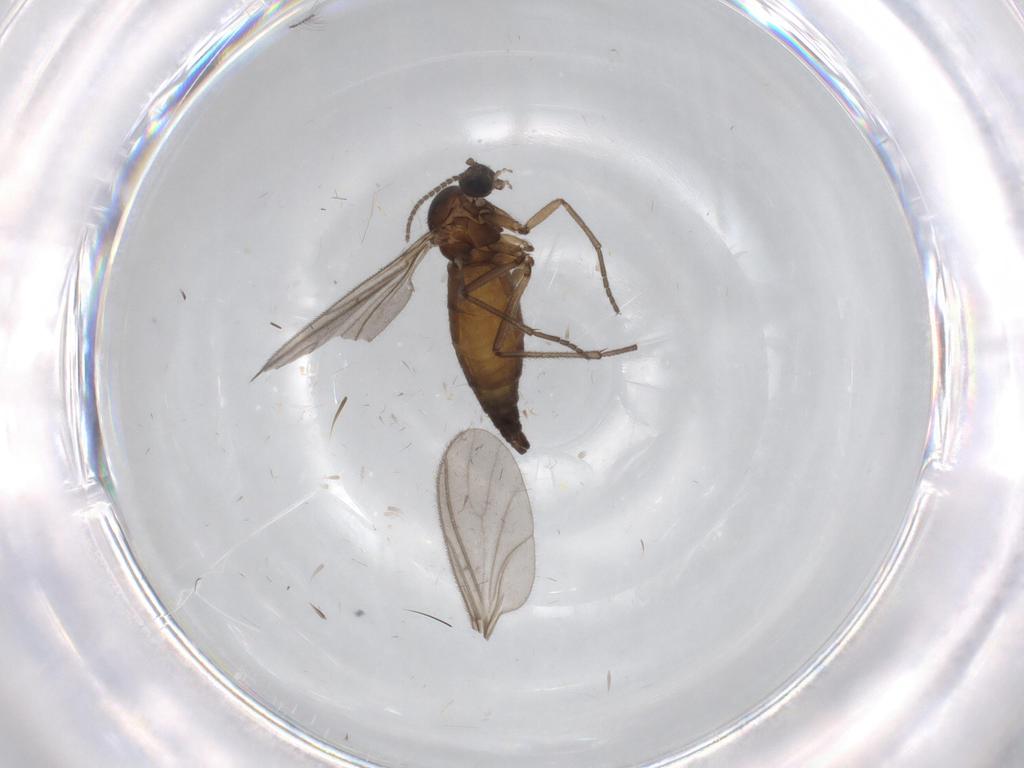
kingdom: Animalia
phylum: Arthropoda
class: Insecta
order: Diptera
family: Sciaridae
